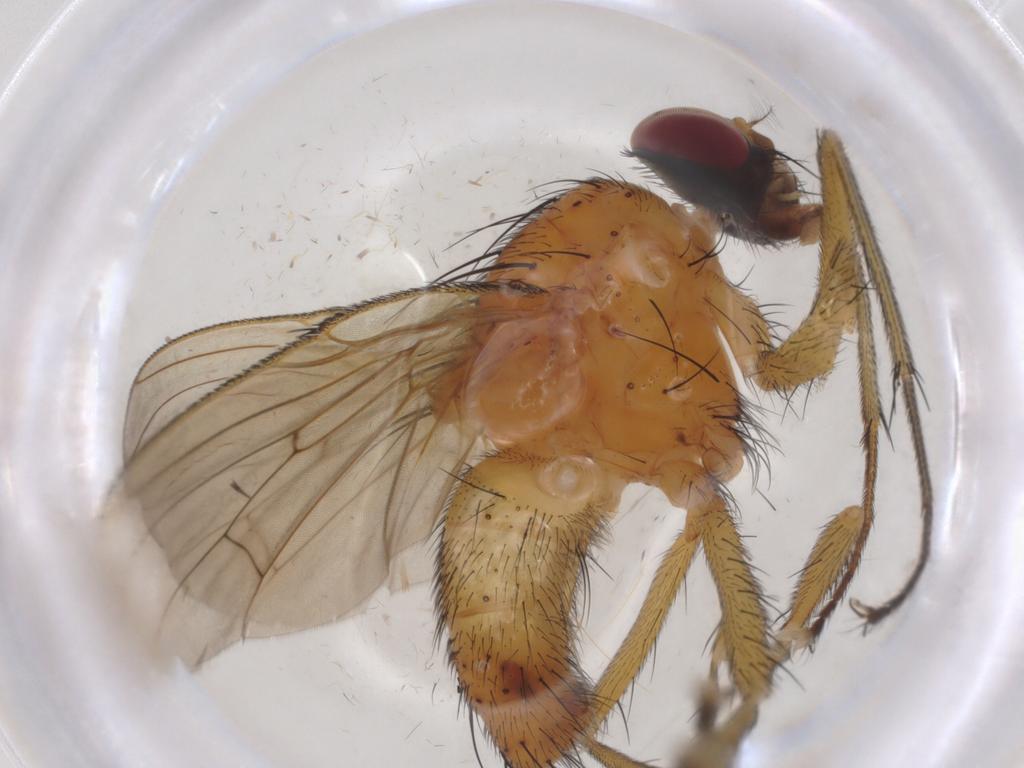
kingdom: Animalia
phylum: Arthropoda
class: Insecta
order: Diptera
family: Muscidae
